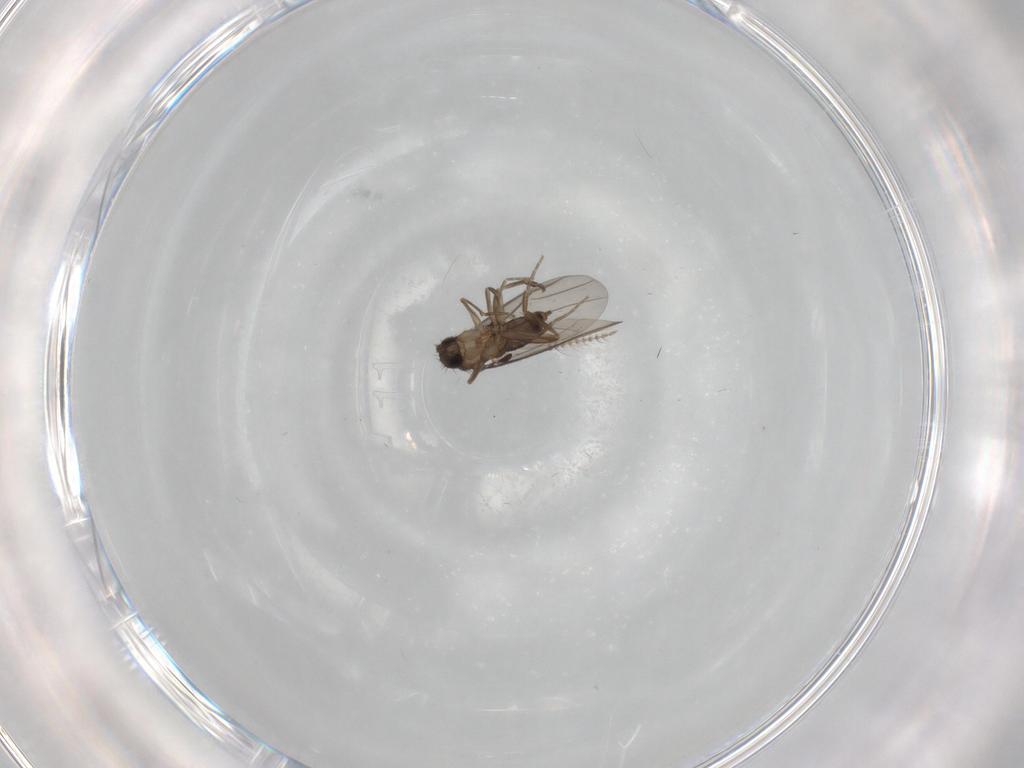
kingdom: Animalia
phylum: Arthropoda
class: Insecta
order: Diptera
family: Phoridae
